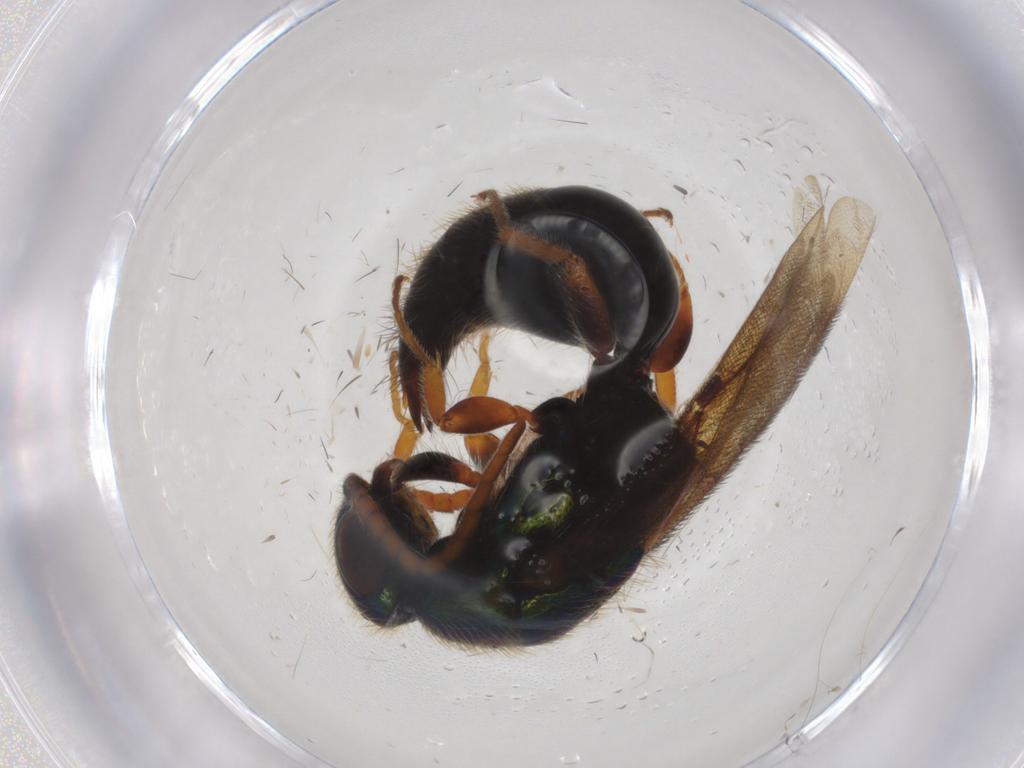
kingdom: Animalia
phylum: Arthropoda
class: Insecta
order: Hymenoptera
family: Bethylidae
